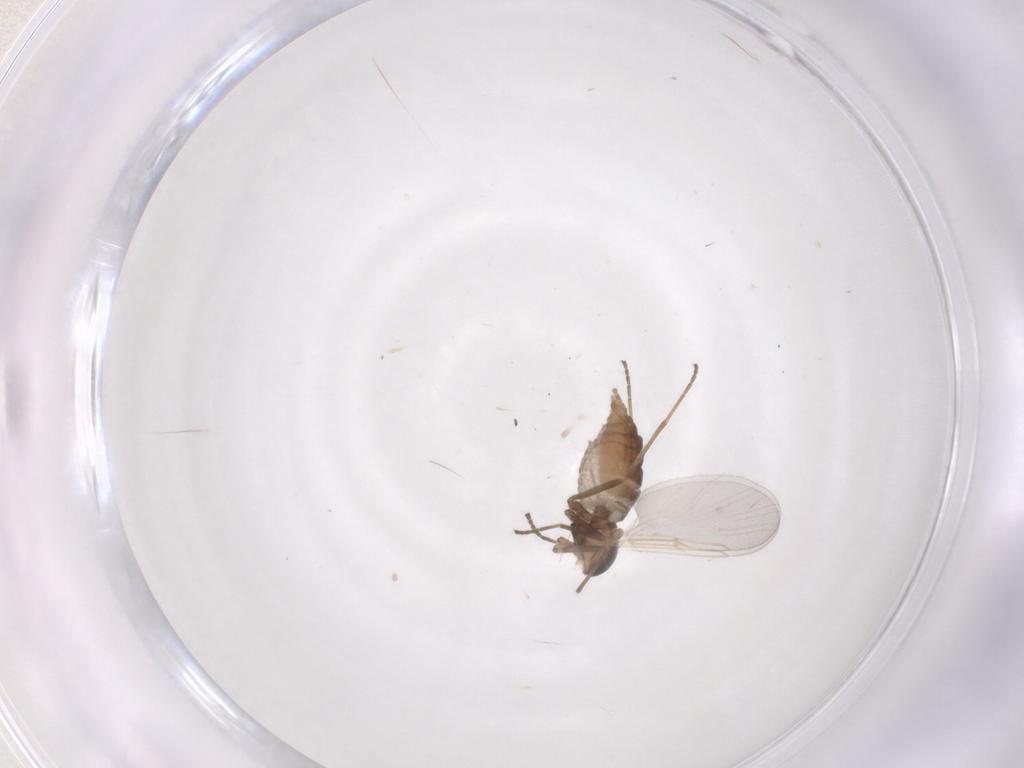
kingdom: Animalia
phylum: Arthropoda
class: Insecta
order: Diptera
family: Cecidomyiidae
